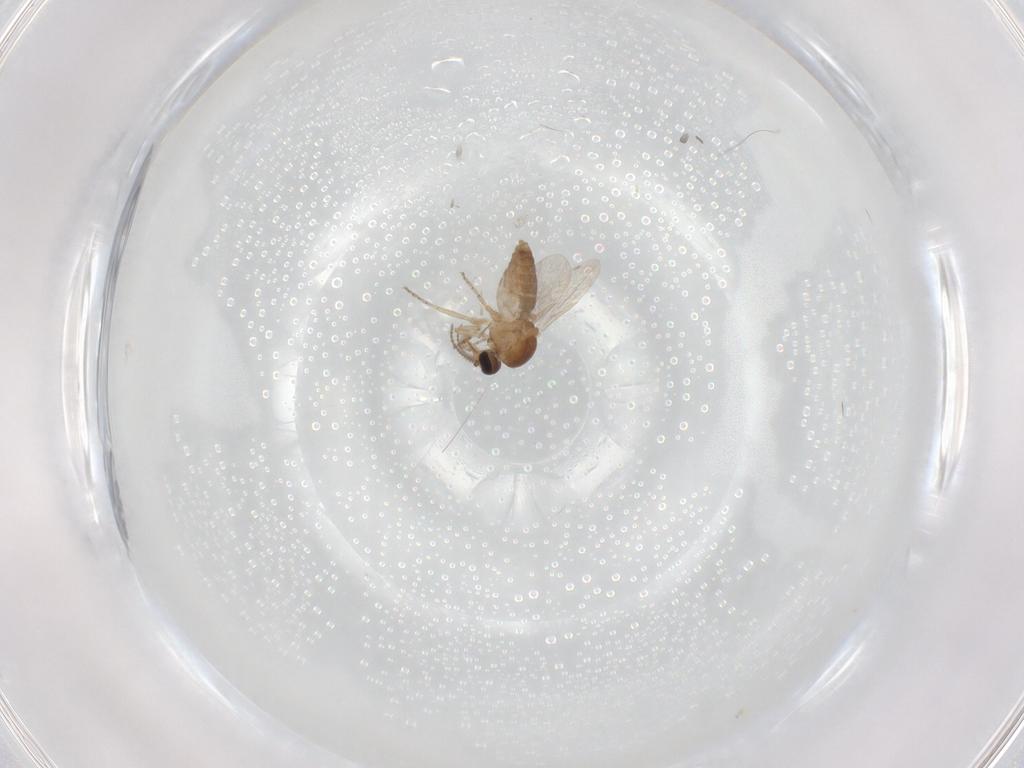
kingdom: Animalia
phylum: Arthropoda
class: Insecta
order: Diptera
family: Ceratopogonidae
